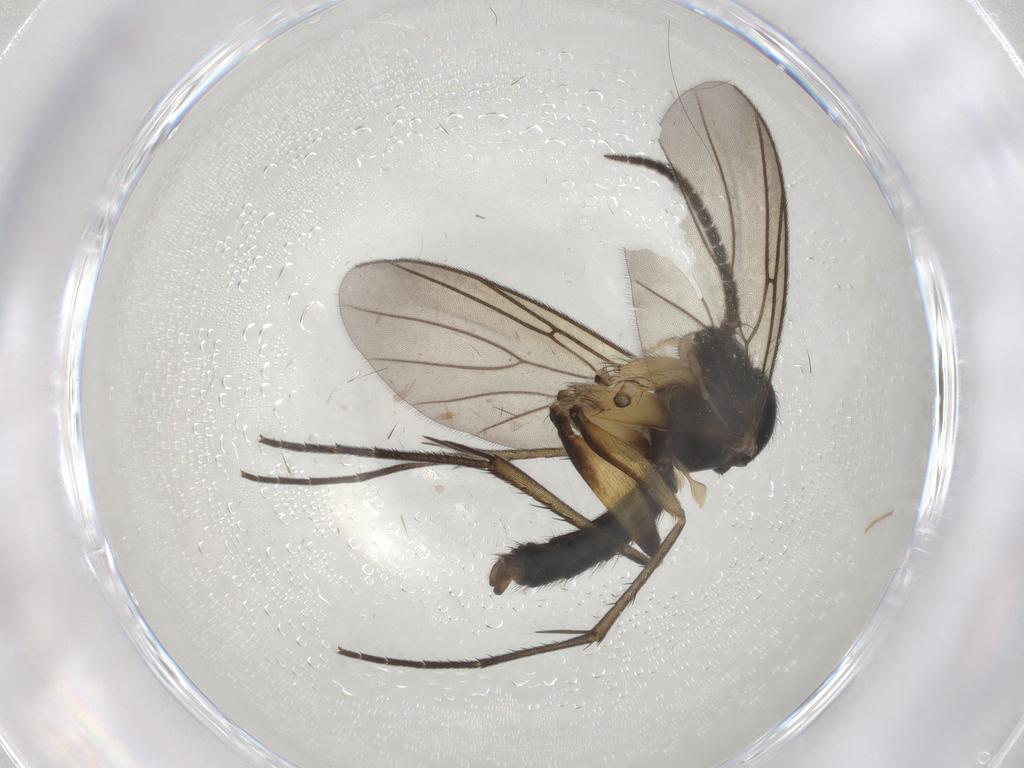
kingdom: Animalia
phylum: Arthropoda
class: Insecta
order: Diptera
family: Mycetophilidae
